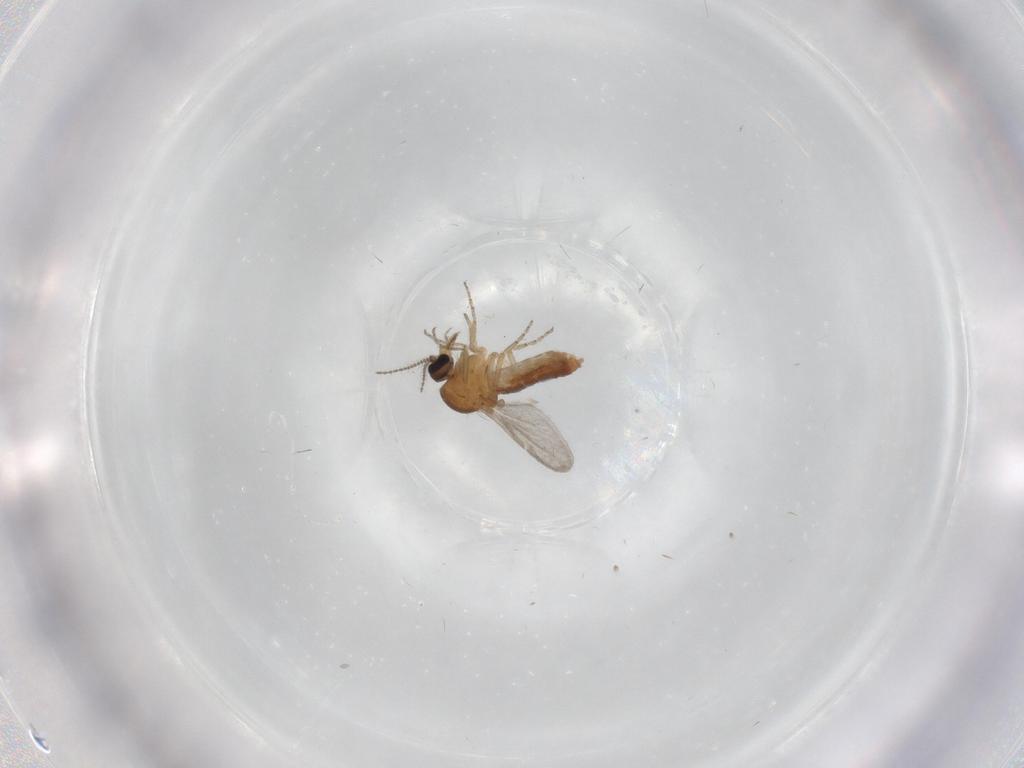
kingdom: Animalia
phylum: Arthropoda
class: Insecta
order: Diptera
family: Ceratopogonidae
